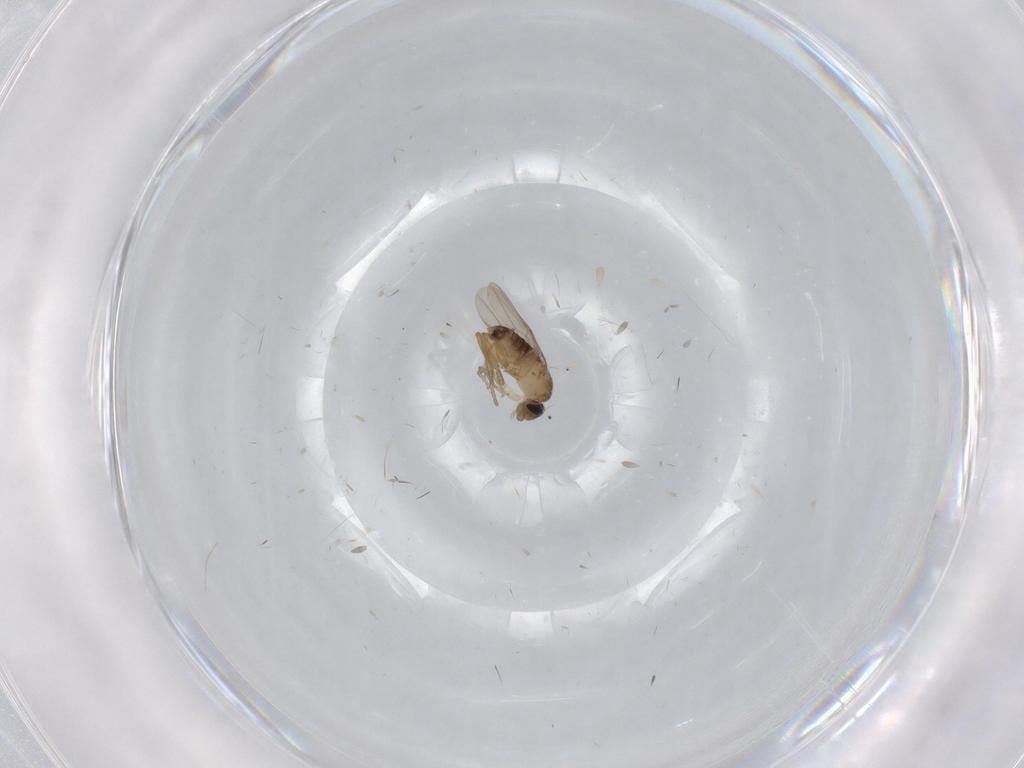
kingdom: Animalia
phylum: Arthropoda
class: Insecta
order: Diptera
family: Phoridae
